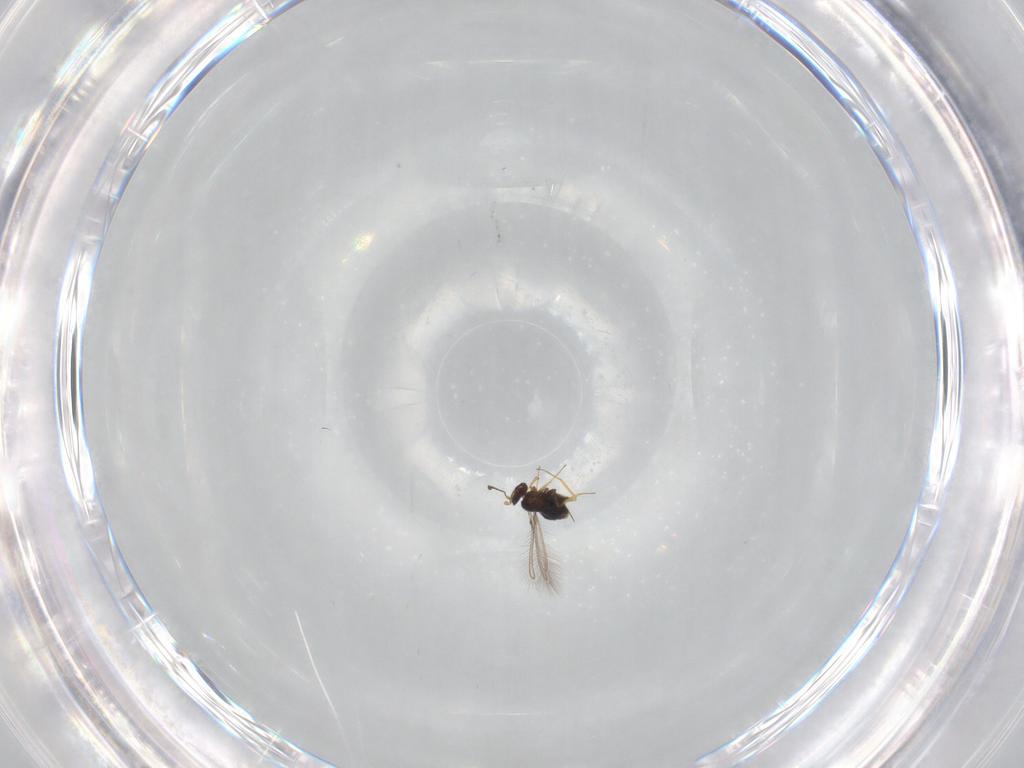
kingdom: Animalia
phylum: Arthropoda
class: Insecta
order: Hymenoptera
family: Mymaridae
